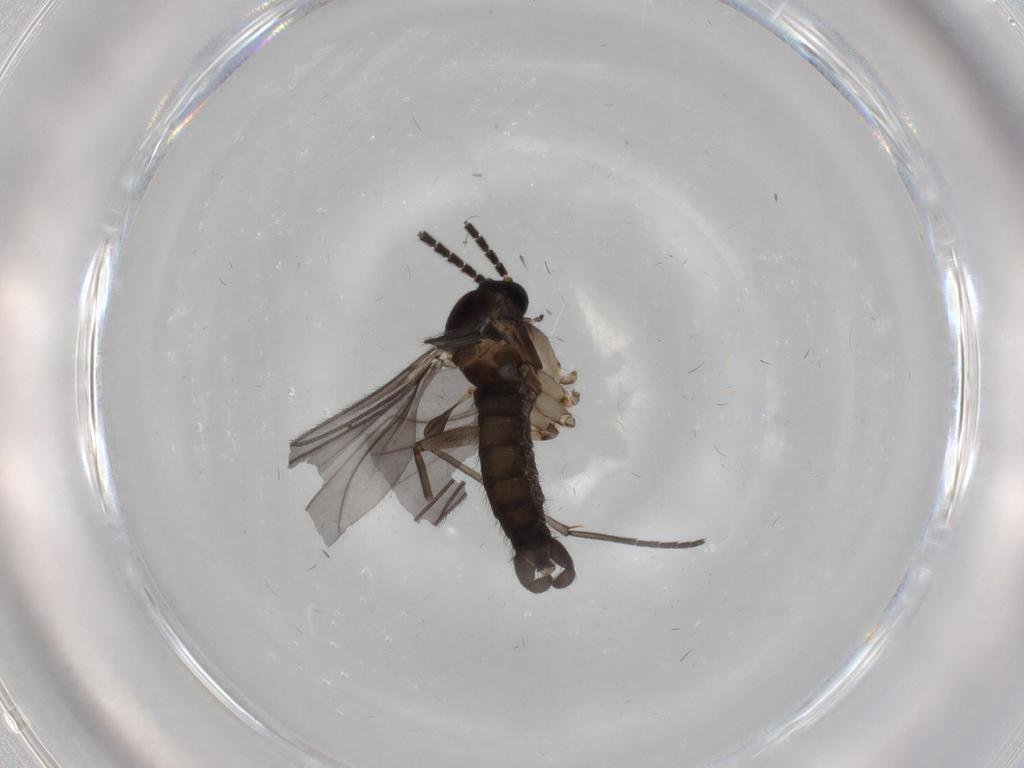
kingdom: Animalia
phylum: Arthropoda
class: Insecta
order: Diptera
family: Sciaridae
